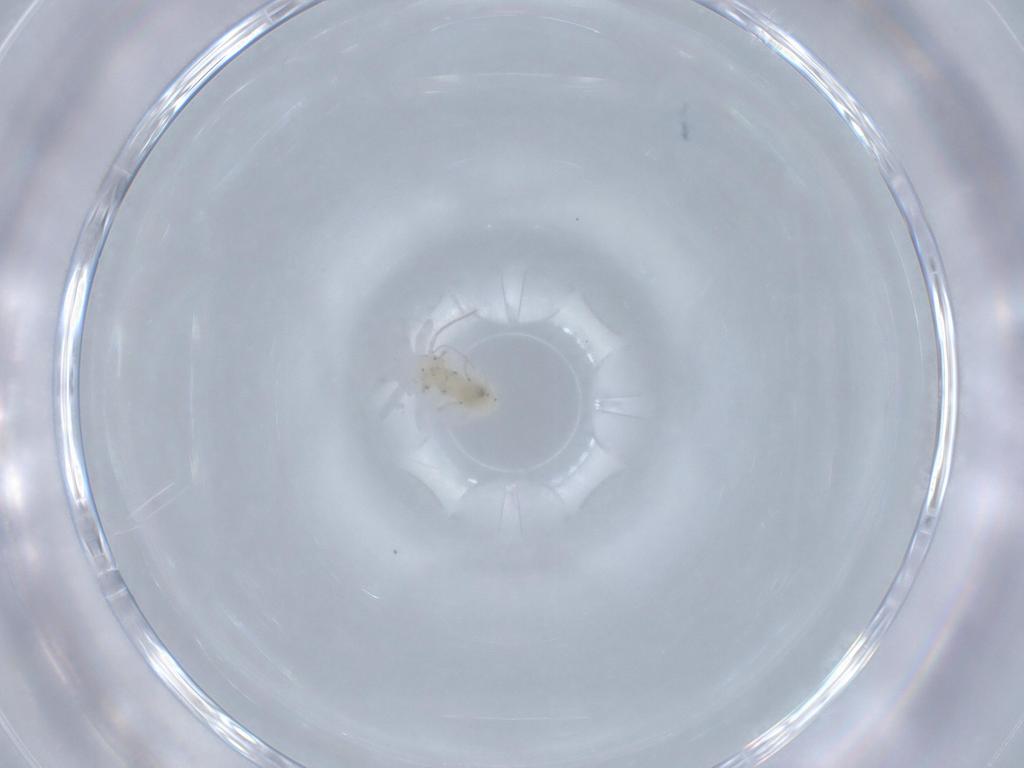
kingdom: Animalia
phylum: Arthropoda
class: Insecta
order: Psocodea
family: Caeciliusidae
